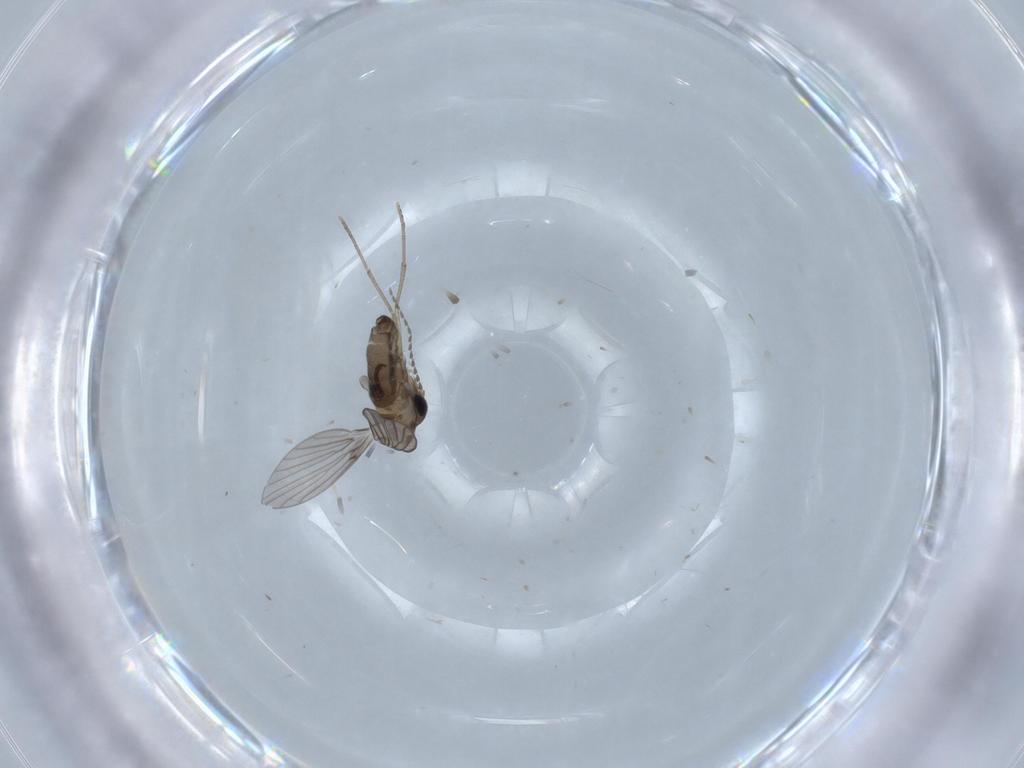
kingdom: Animalia
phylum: Arthropoda
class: Insecta
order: Diptera
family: Psychodidae
